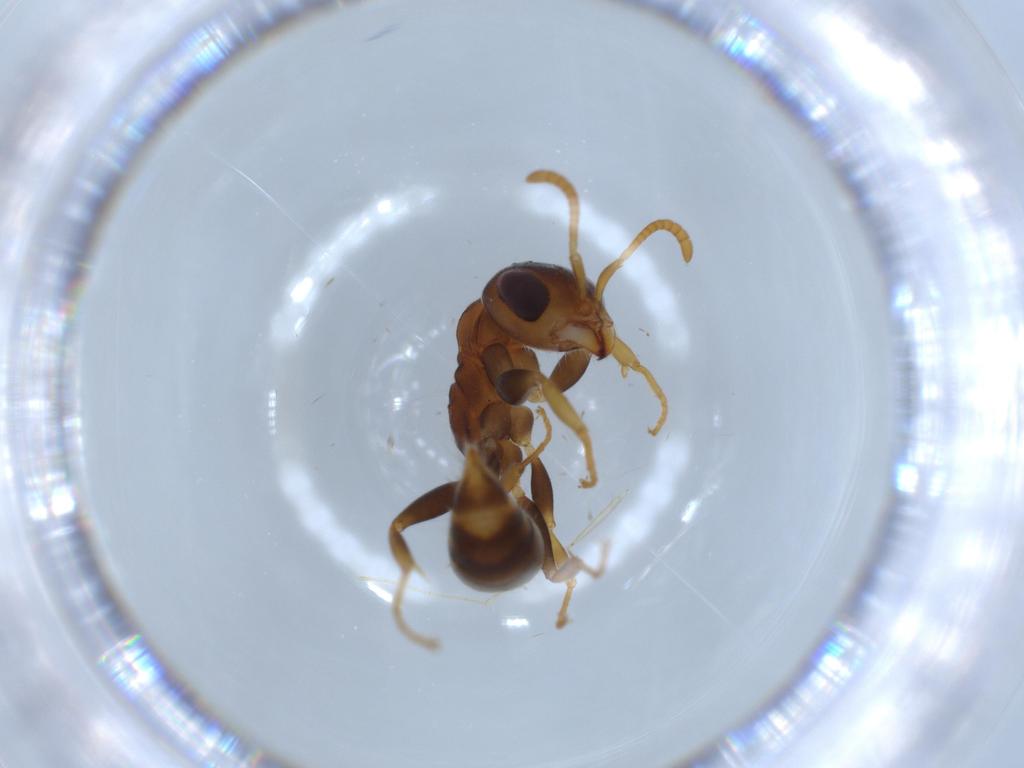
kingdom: Animalia
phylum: Arthropoda
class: Insecta
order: Hymenoptera
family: Formicidae
